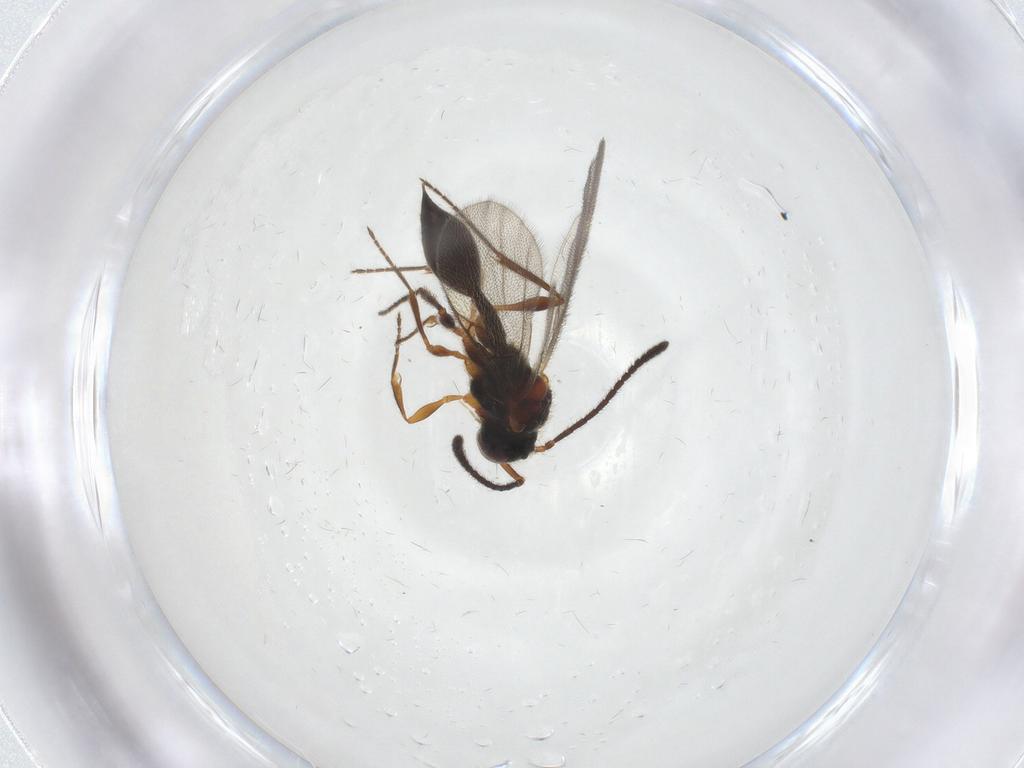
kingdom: Animalia
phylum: Arthropoda
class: Insecta
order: Hymenoptera
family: Diapriidae
